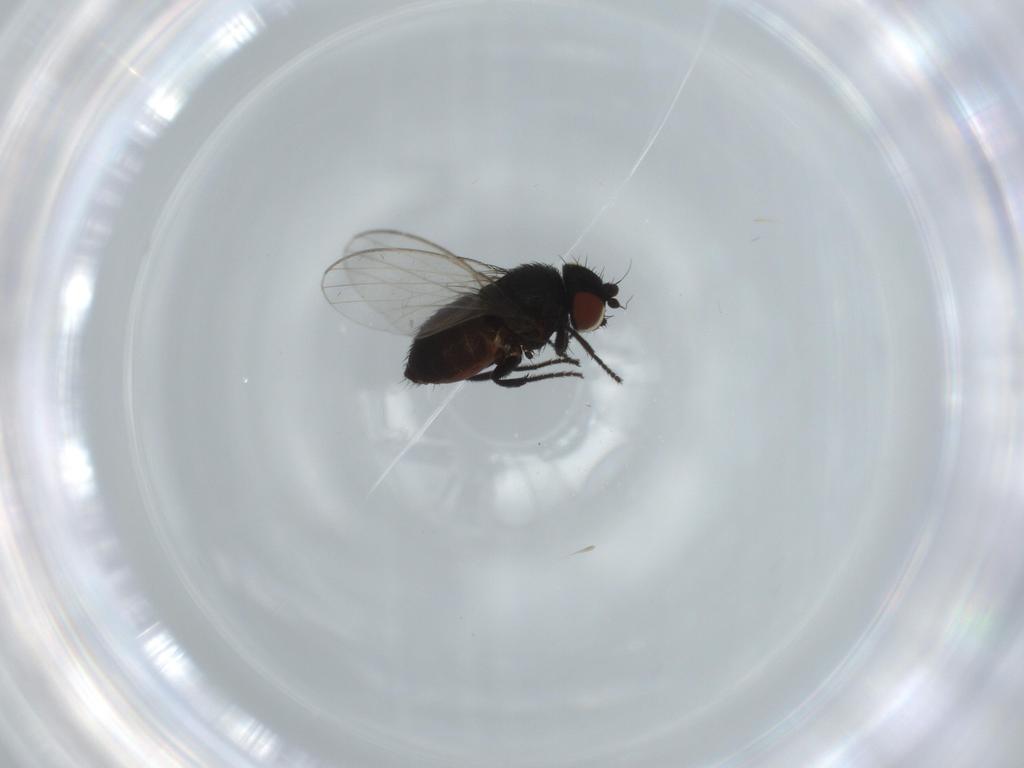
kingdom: Animalia
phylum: Arthropoda
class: Insecta
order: Diptera
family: Milichiidae
